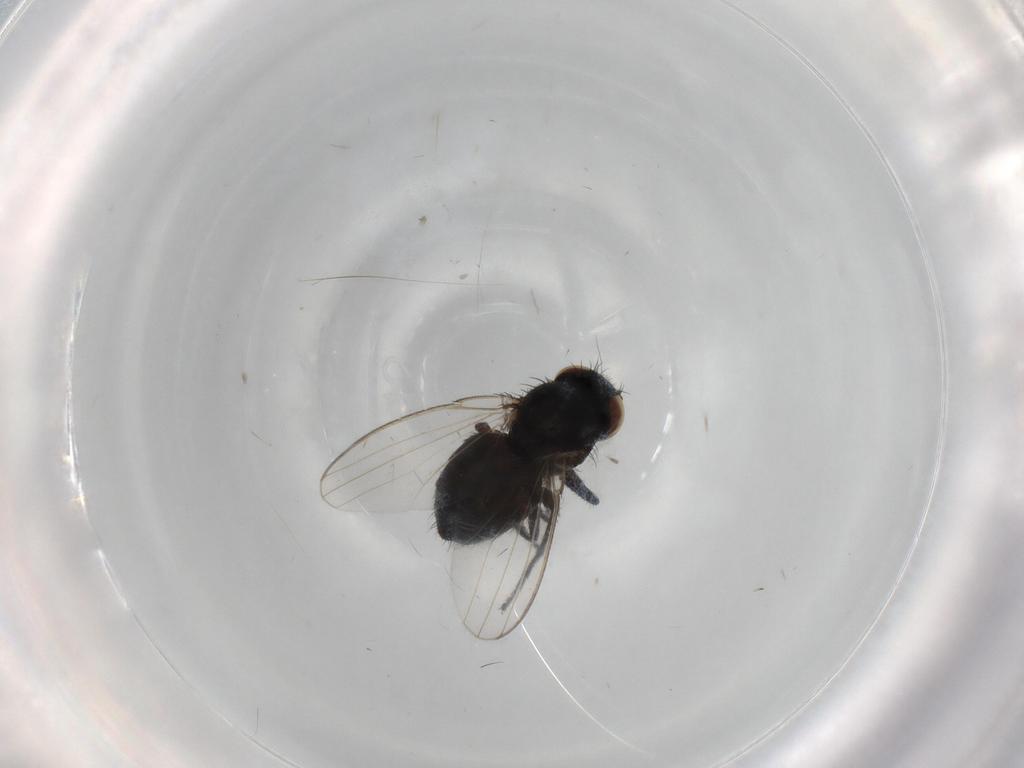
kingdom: Animalia
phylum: Arthropoda
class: Insecta
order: Diptera
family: Milichiidae
